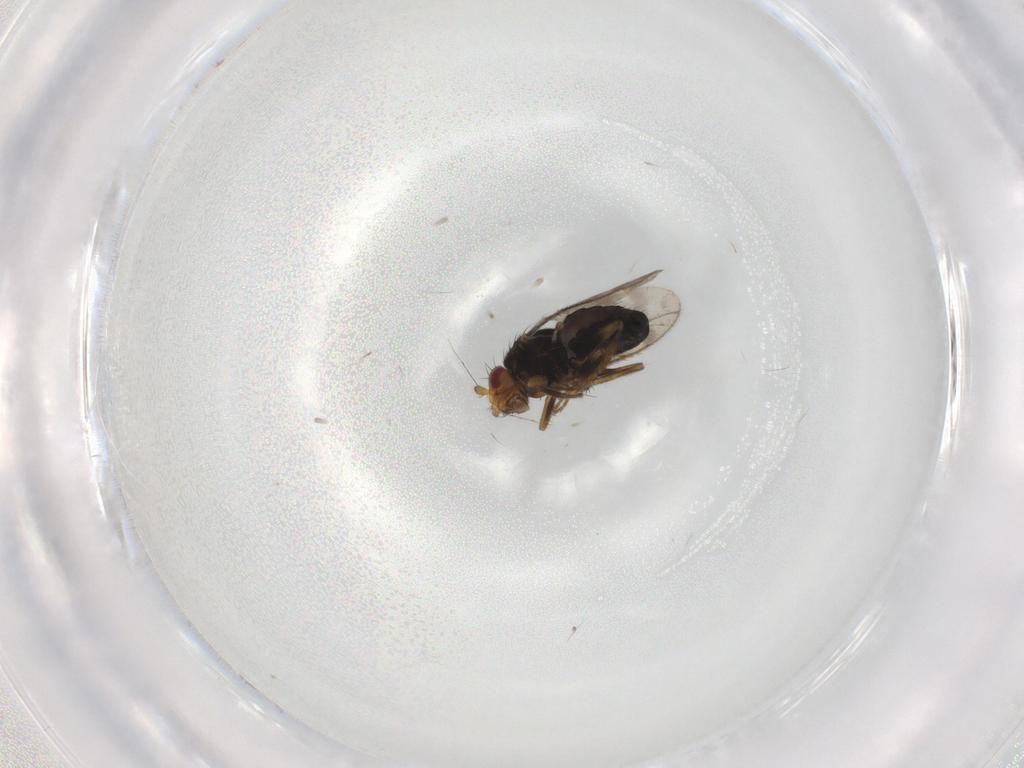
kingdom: Animalia
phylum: Arthropoda
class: Insecta
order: Diptera
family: Sphaeroceridae
